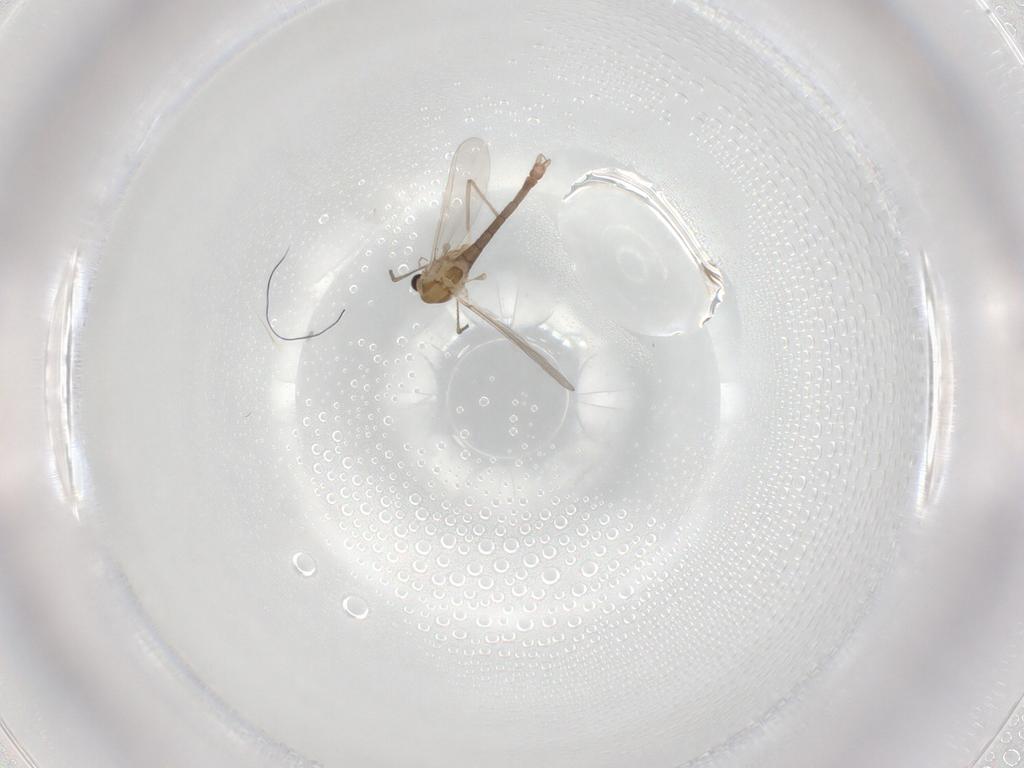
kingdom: Animalia
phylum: Arthropoda
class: Insecta
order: Diptera
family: Chironomidae
